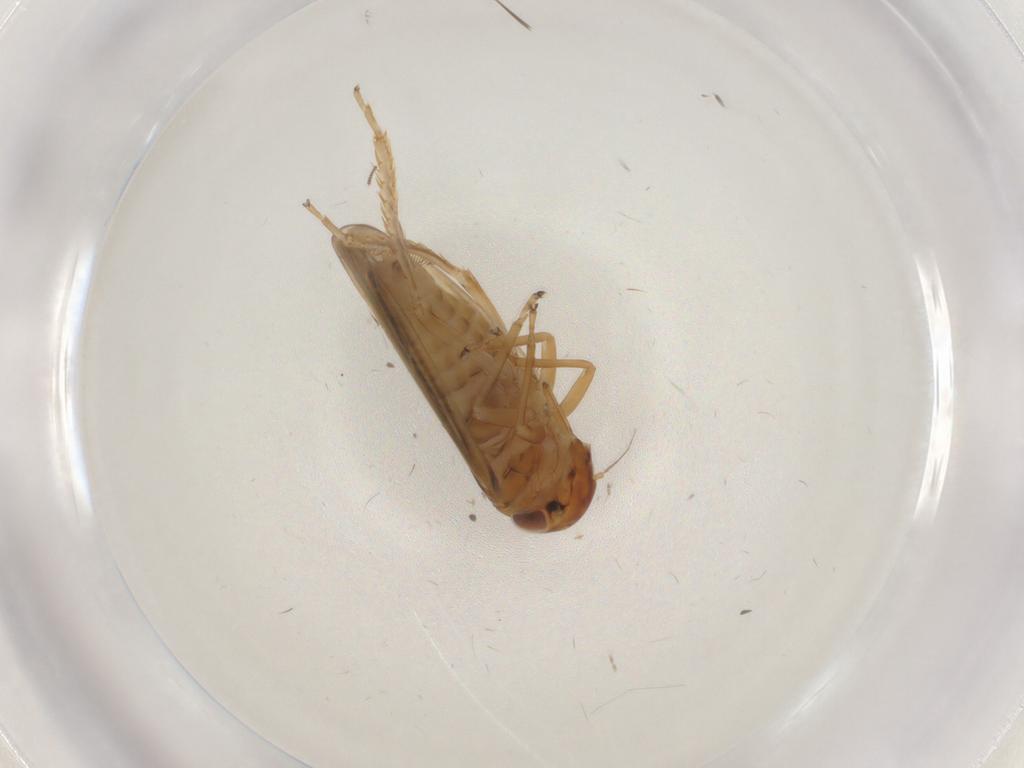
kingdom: Animalia
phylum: Arthropoda
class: Insecta
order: Hemiptera
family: Cicadellidae
